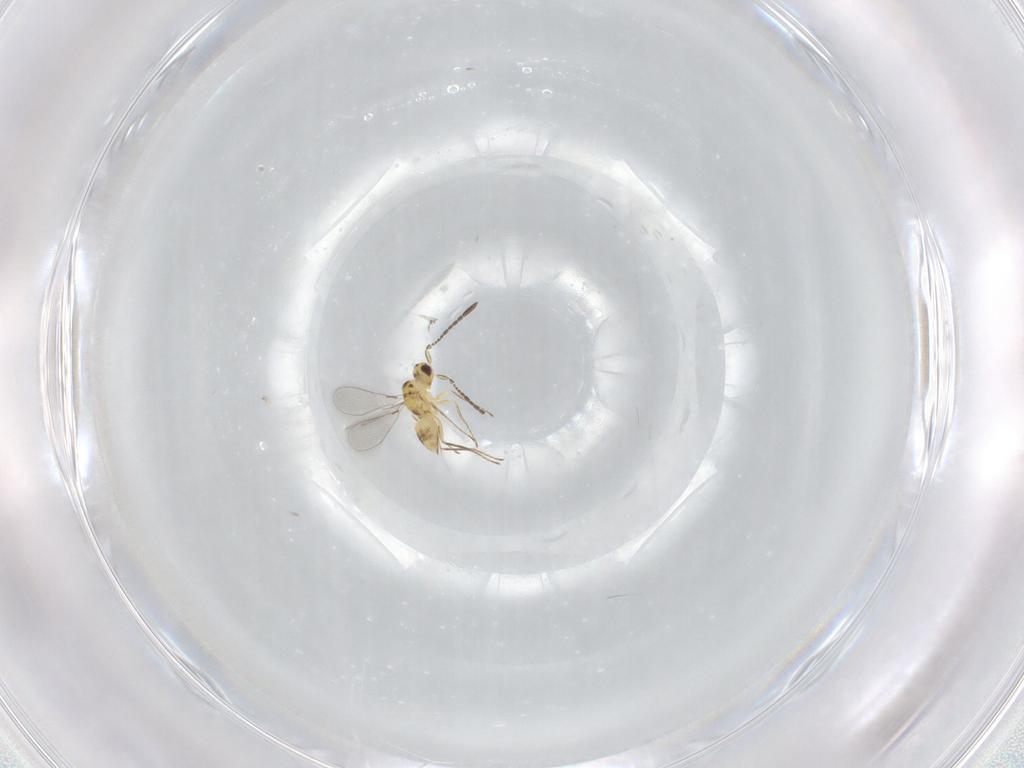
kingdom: Animalia
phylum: Arthropoda
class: Insecta
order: Hymenoptera
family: Mymaridae
